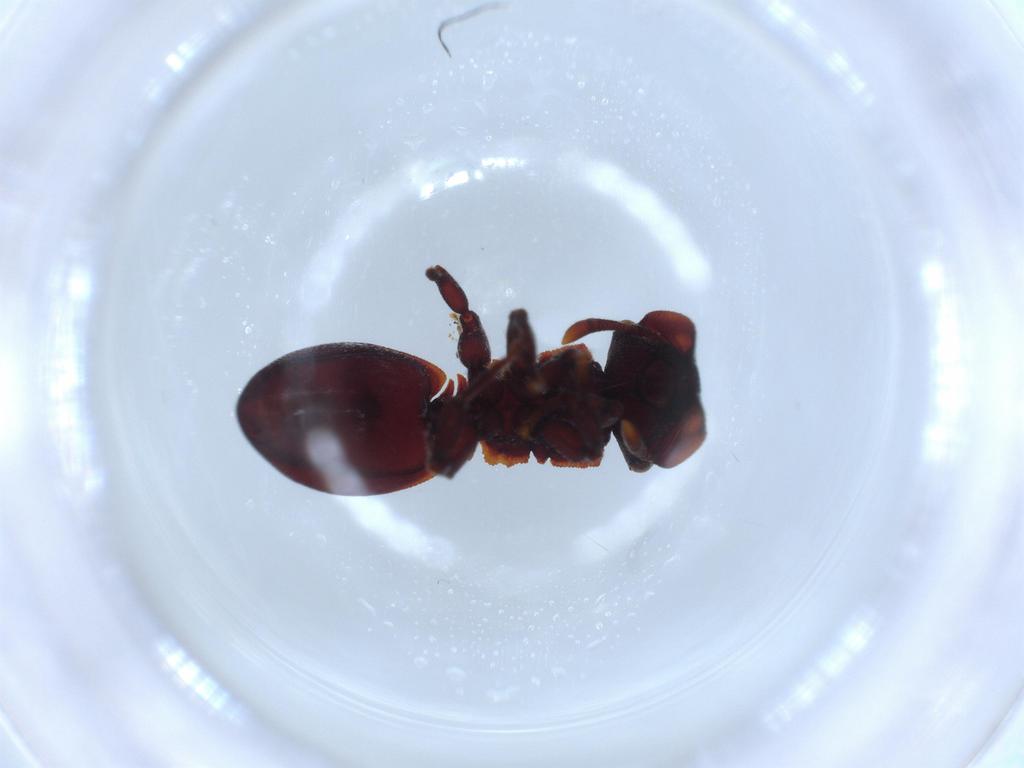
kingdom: Animalia
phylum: Arthropoda
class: Insecta
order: Hymenoptera
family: Formicidae
